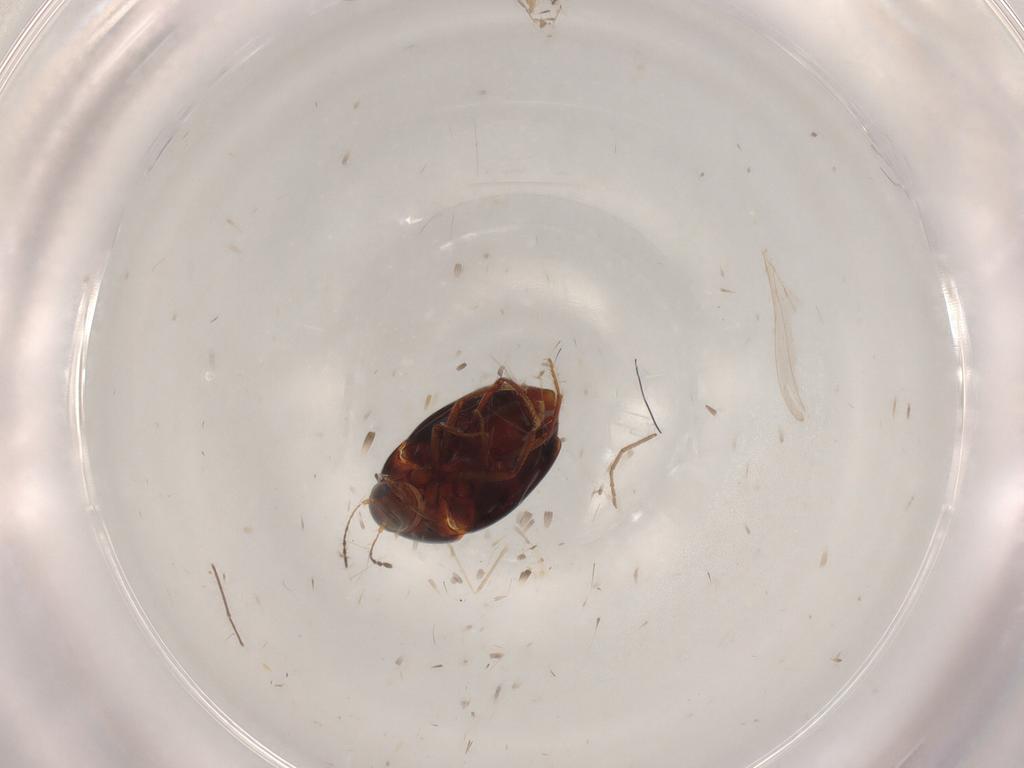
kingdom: Animalia
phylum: Arthropoda
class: Insecta
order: Coleoptera
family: Staphylinidae
